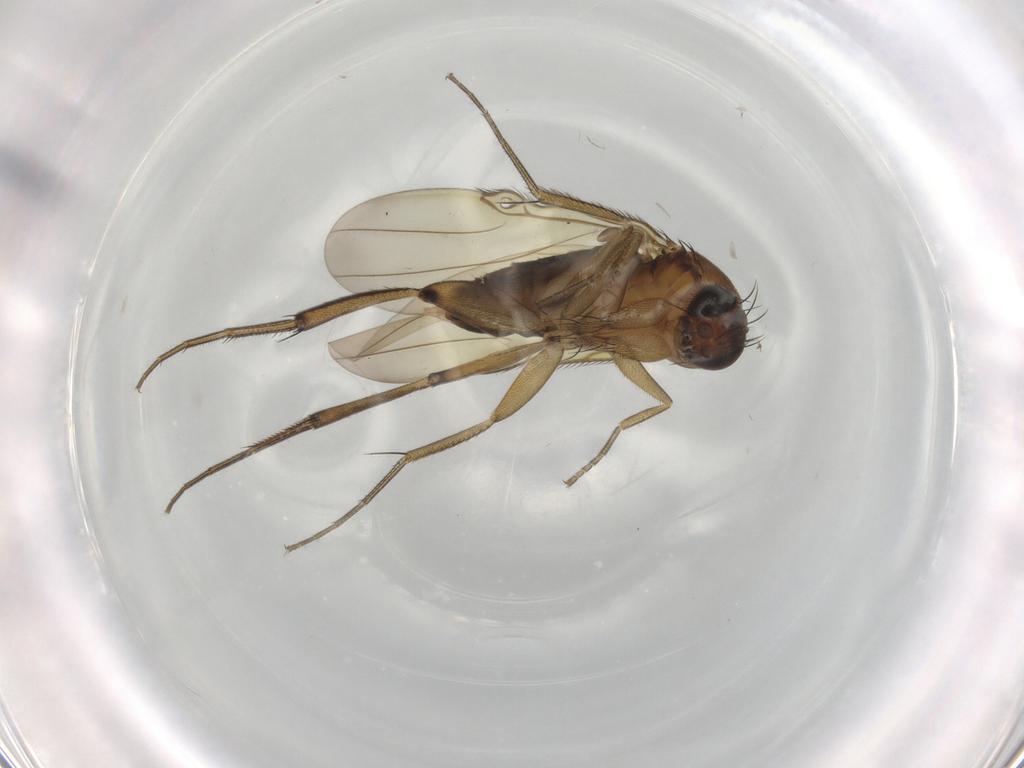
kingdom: Animalia
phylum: Arthropoda
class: Insecta
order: Diptera
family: Phoridae
